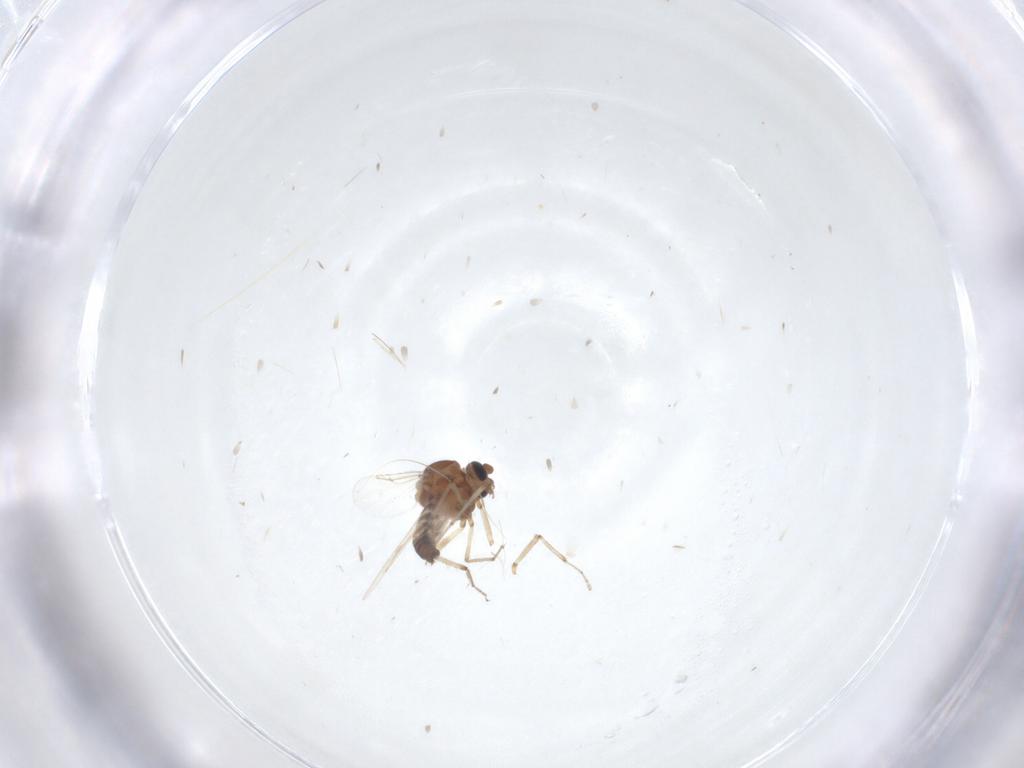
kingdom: Animalia
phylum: Arthropoda
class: Insecta
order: Diptera
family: Ceratopogonidae
